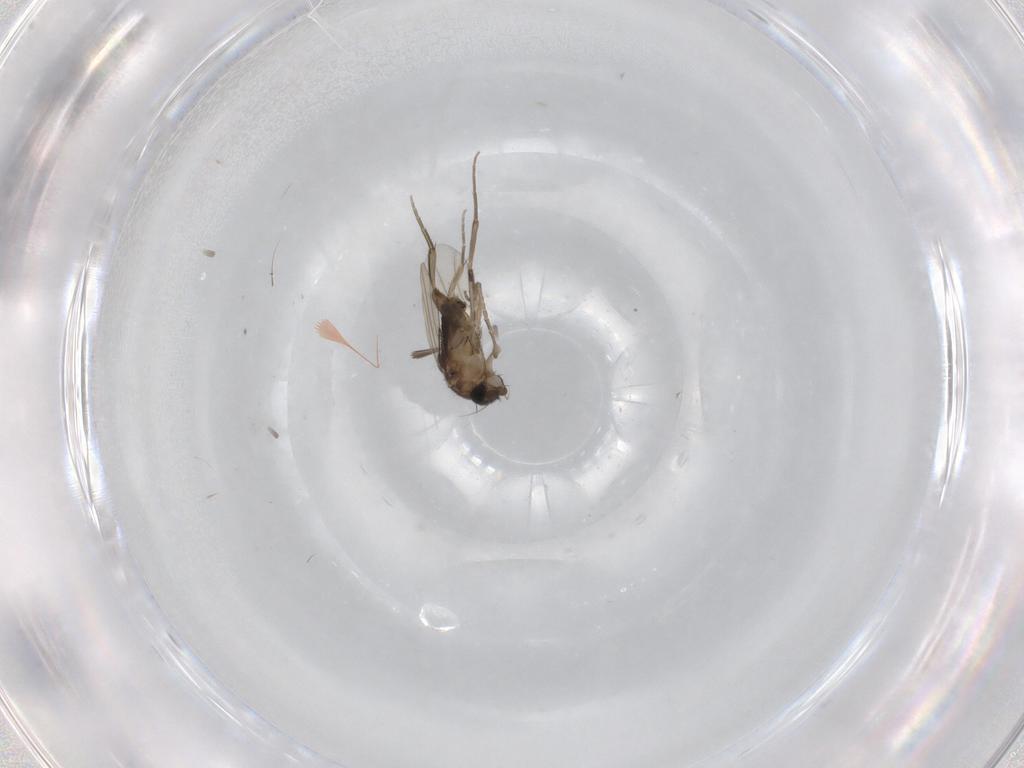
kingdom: Animalia
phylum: Arthropoda
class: Insecta
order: Diptera
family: Phoridae
